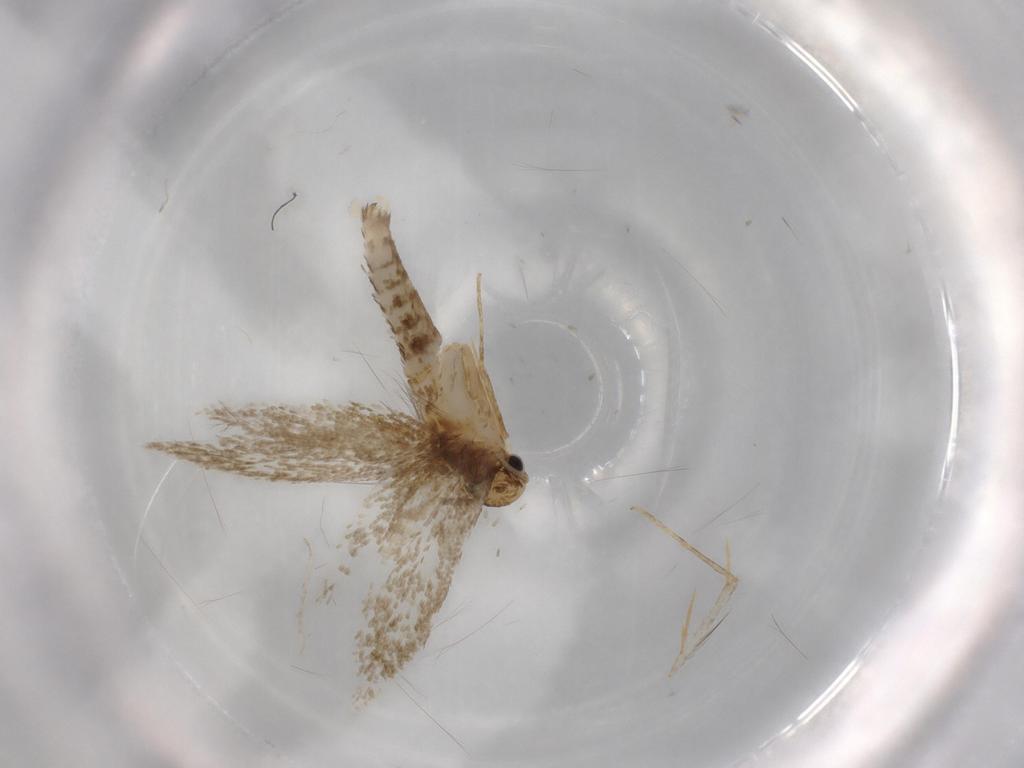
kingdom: Animalia
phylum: Arthropoda
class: Insecta
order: Lepidoptera
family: Tineidae
